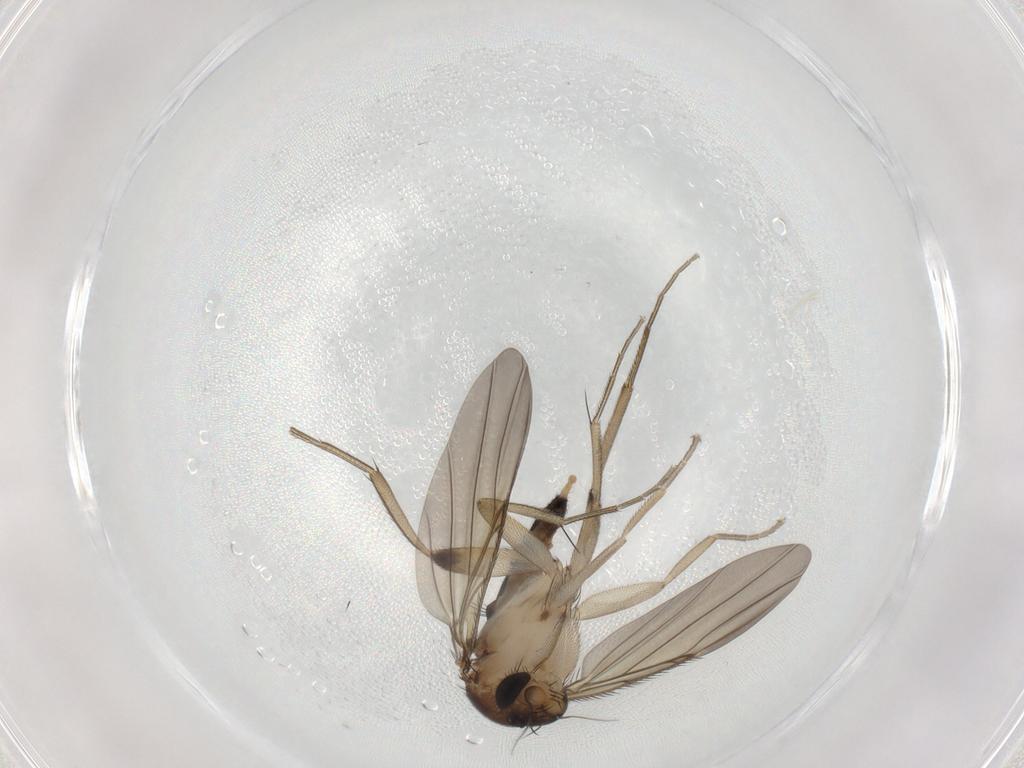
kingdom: Animalia
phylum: Arthropoda
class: Insecta
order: Diptera
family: Phoridae
